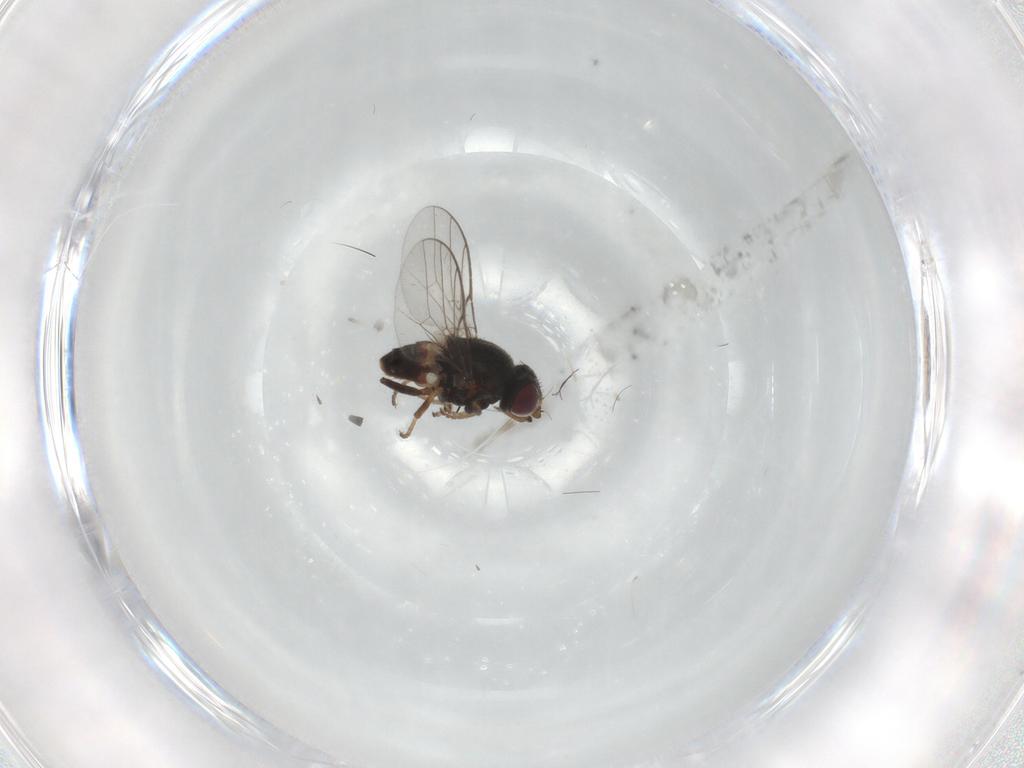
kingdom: Animalia
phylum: Arthropoda
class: Insecta
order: Diptera
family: Chloropidae
